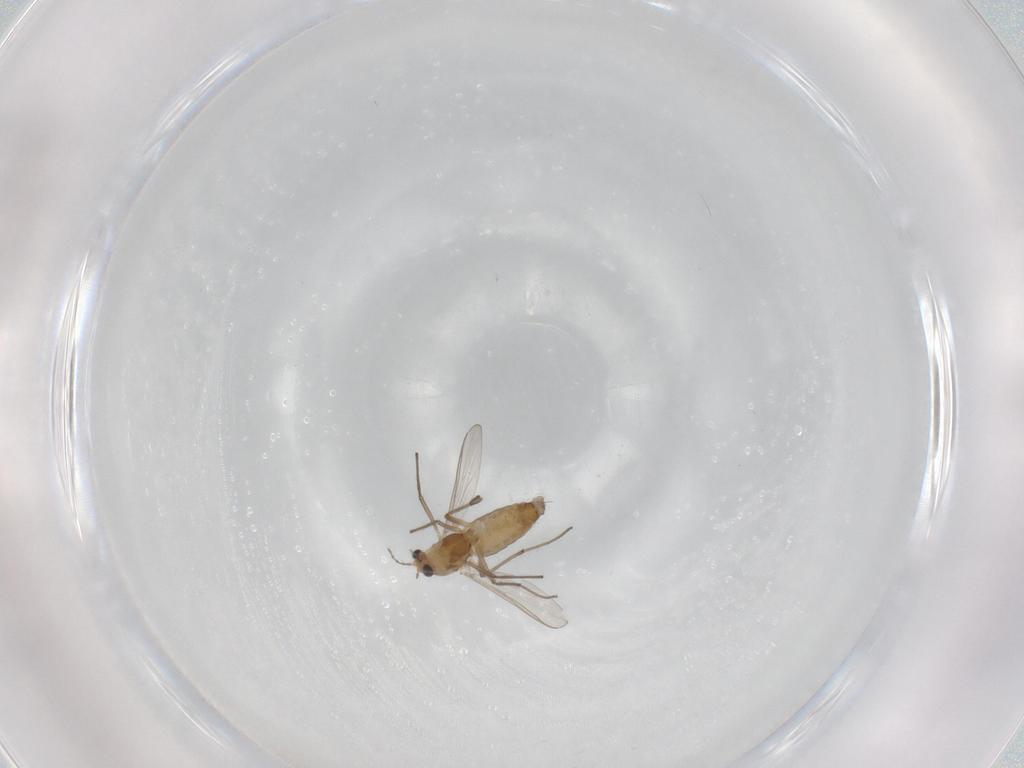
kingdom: Animalia
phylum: Arthropoda
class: Insecta
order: Diptera
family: Chironomidae
